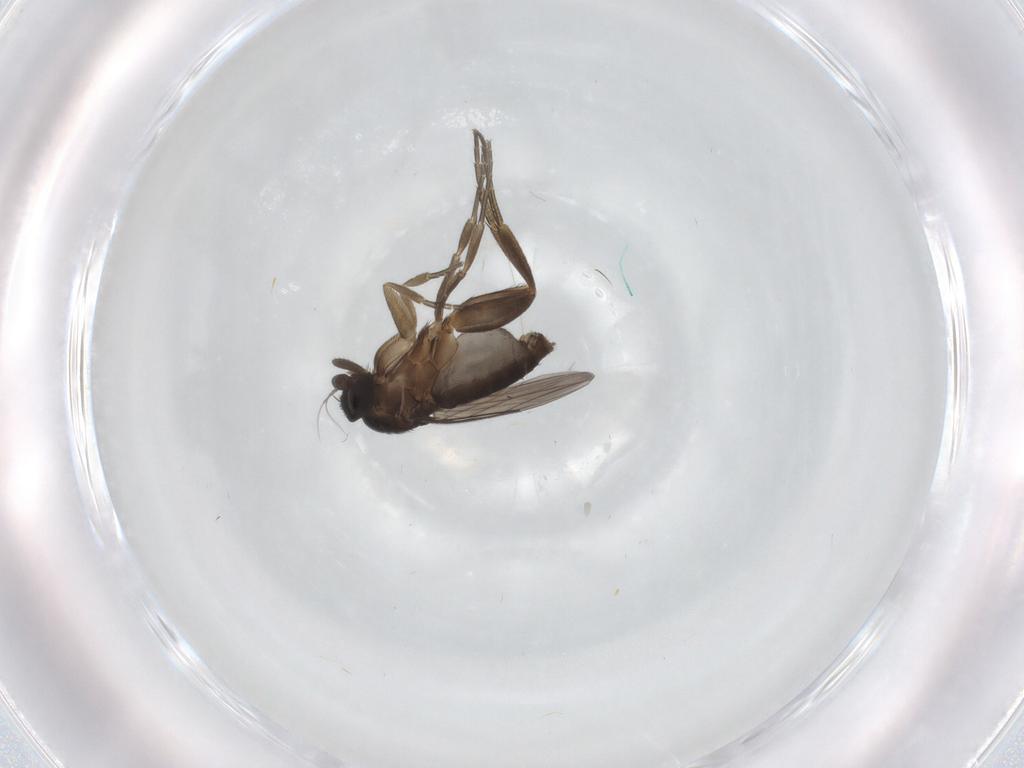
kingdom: Animalia
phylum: Arthropoda
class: Insecta
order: Diptera
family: Phoridae
